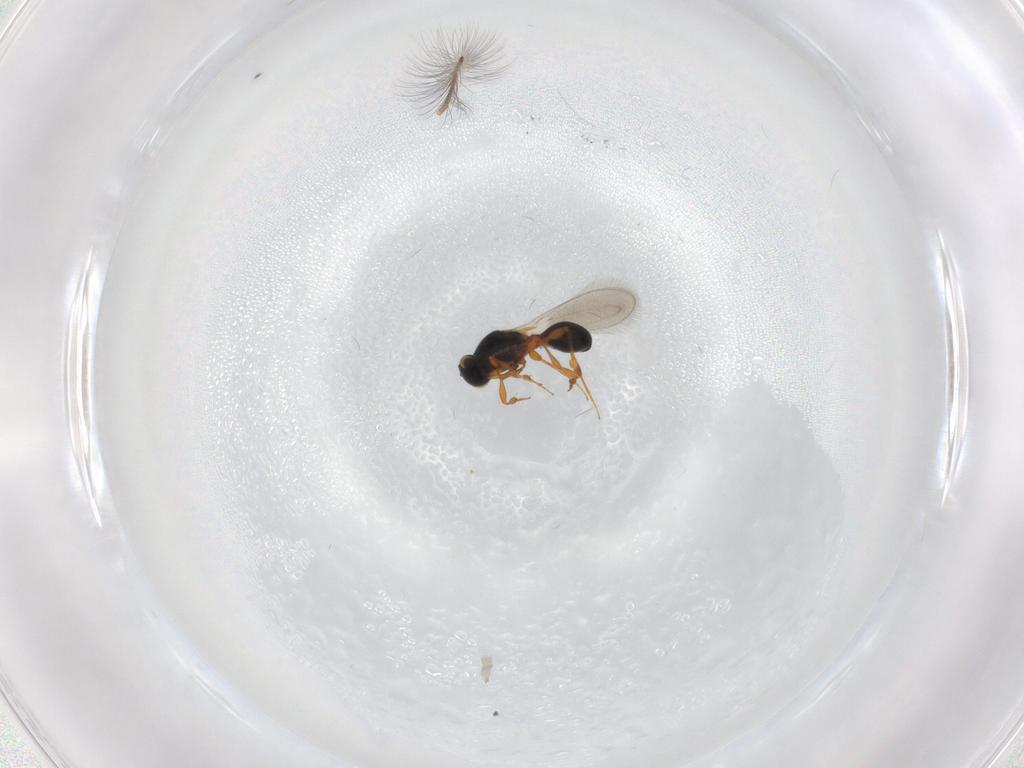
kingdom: Animalia
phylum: Arthropoda
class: Insecta
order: Hymenoptera
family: Platygastridae
